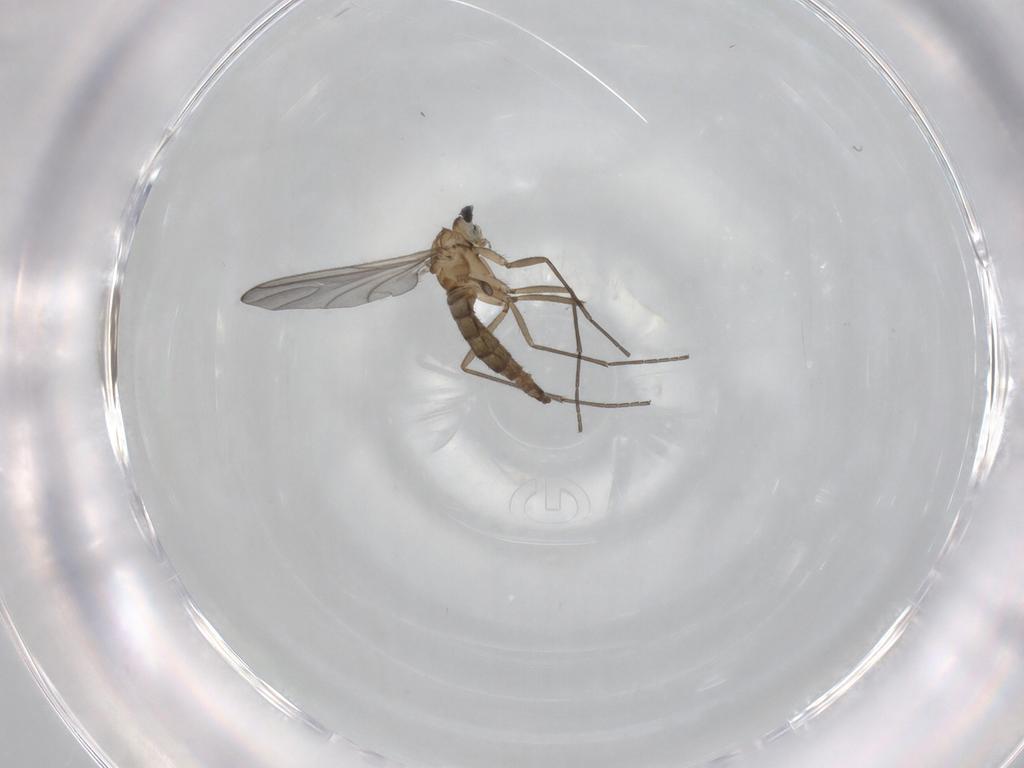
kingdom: Animalia
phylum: Arthropoda
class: Insecta
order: Diptera
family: Sciaridae
